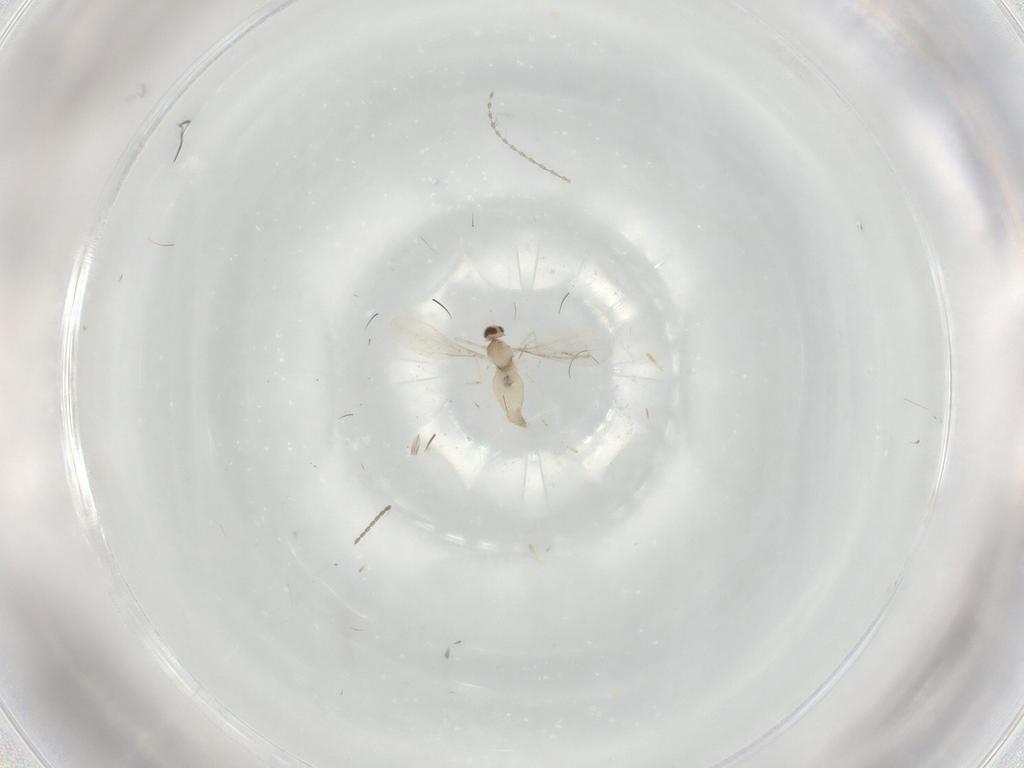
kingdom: Animalia
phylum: Arthropoda
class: Insecta
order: Diptera
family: Cecidomyiidae
